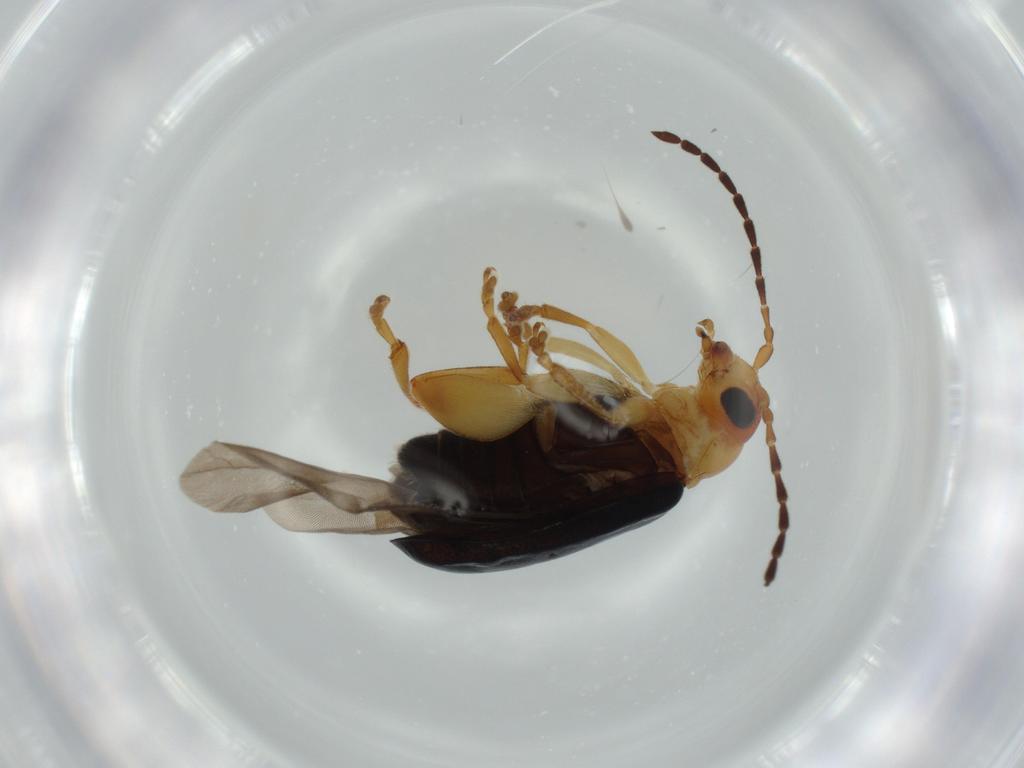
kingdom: Animalia
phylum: Arthropoda
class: Insecta
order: Coleoptera
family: Chrysomelidae
